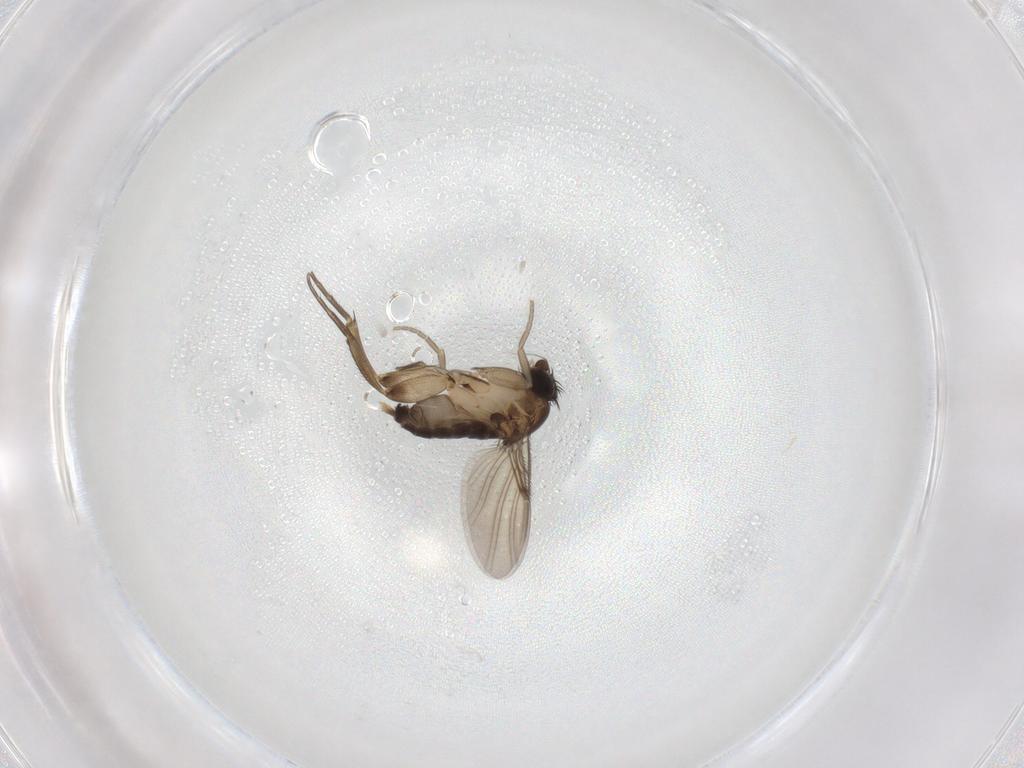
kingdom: Animalia
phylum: Arthropoda
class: Insecta
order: Diptera
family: Phoridae
